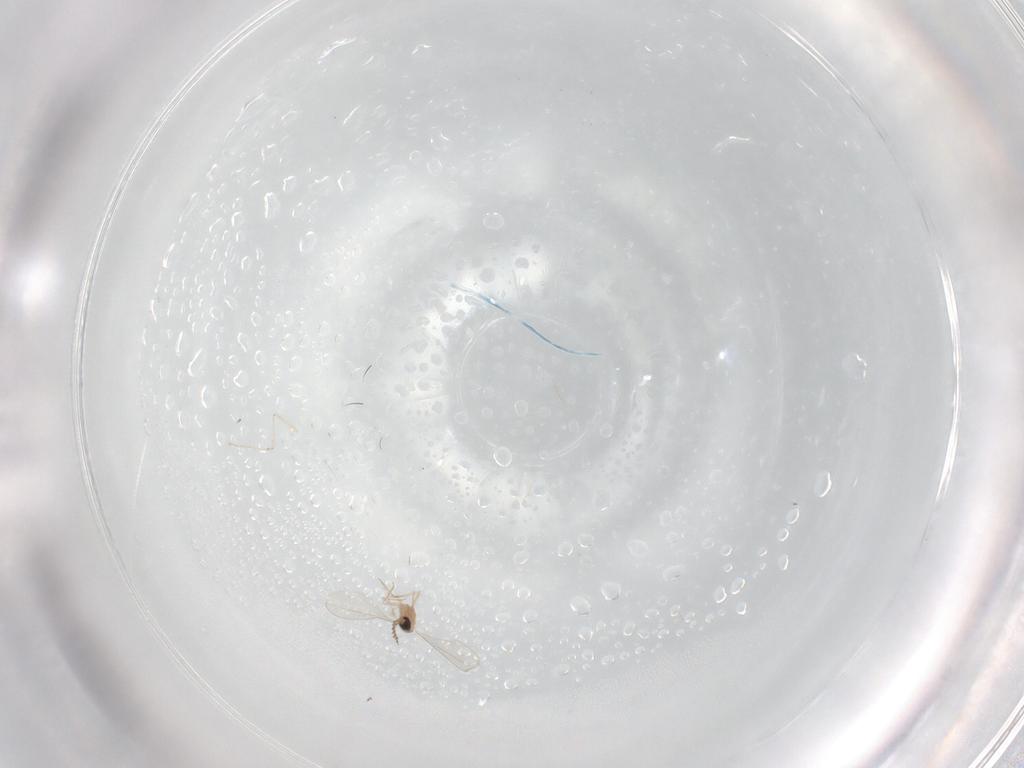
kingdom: Animalia
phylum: Arthropoda
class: Insecta
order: Diptera
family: Cecidomyiidae
